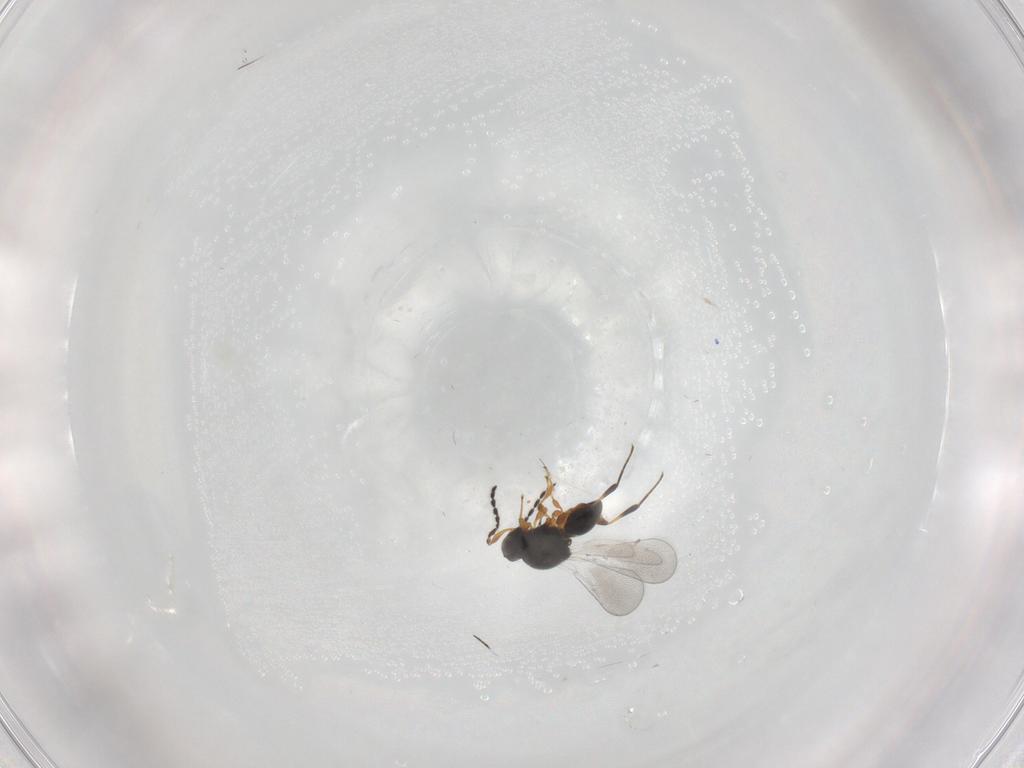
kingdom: Animalia
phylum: Arthropoda
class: Insecta
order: Hymenoptera
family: Platygastridae
